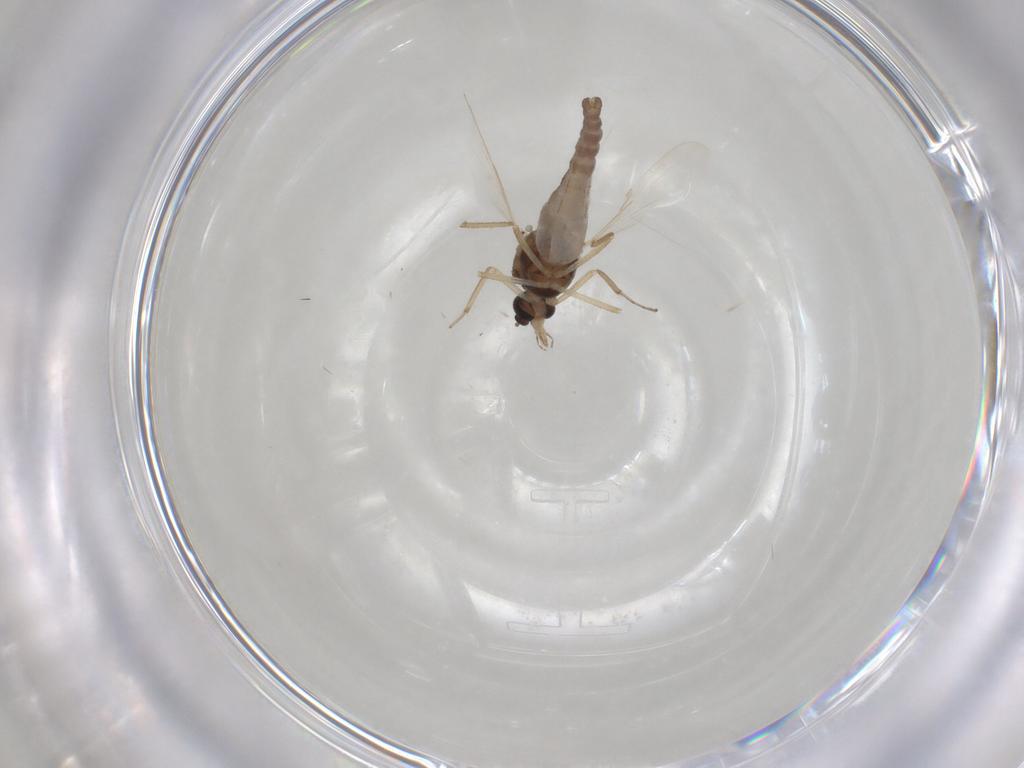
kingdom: Animalia
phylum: Arthropoda
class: Insecta
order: Diptera
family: Ceratopogonidae
